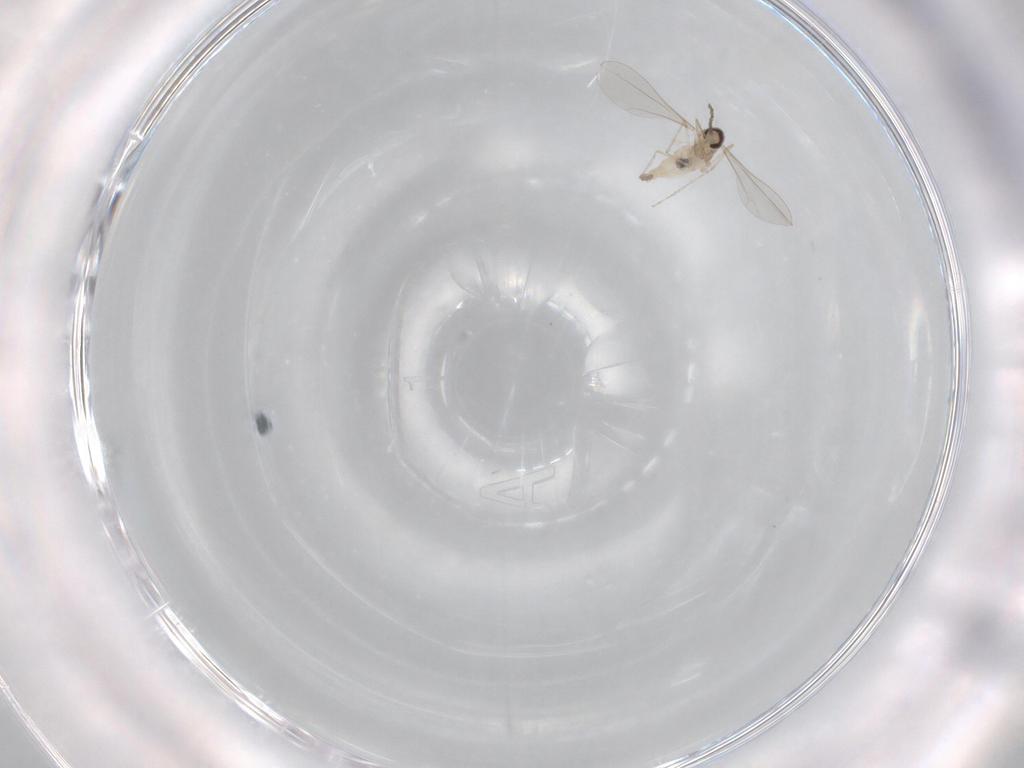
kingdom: Animalia
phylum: Arthropoda
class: Insecta
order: Diptera
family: Cecidomyiidae
